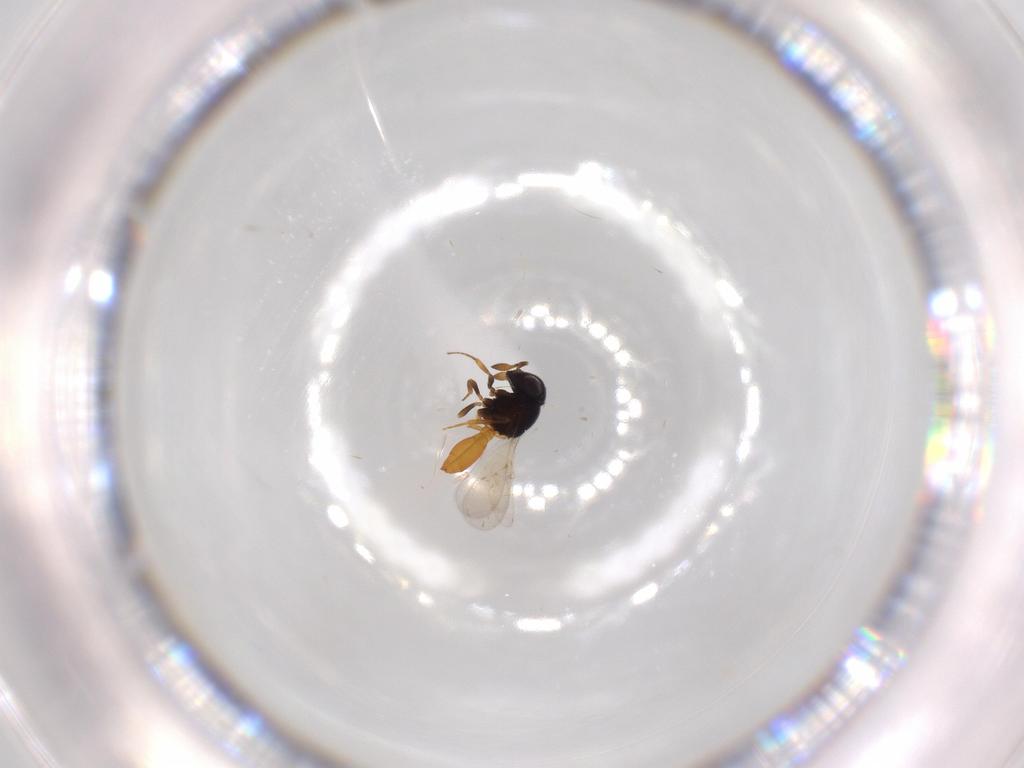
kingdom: Animalia
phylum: Arthropoda
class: Insecta
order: Hymenoptera
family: Scelionidae
